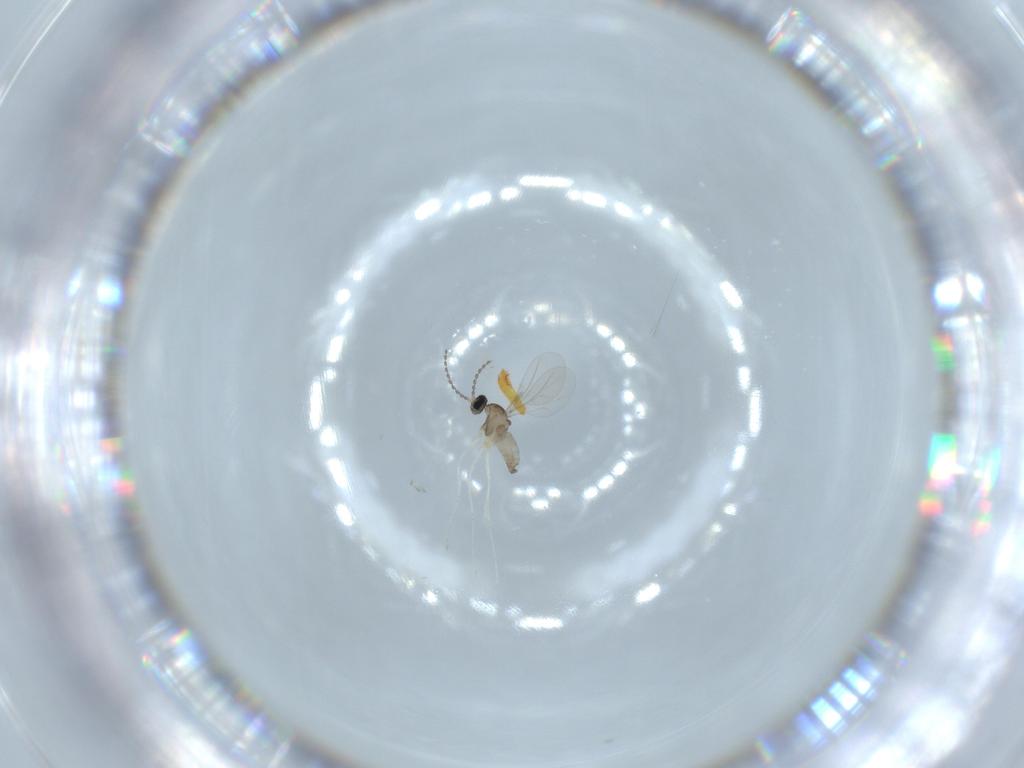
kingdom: Animalia
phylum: Arthropoda
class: Insecta
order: Diptera
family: Cecidomyiidae
